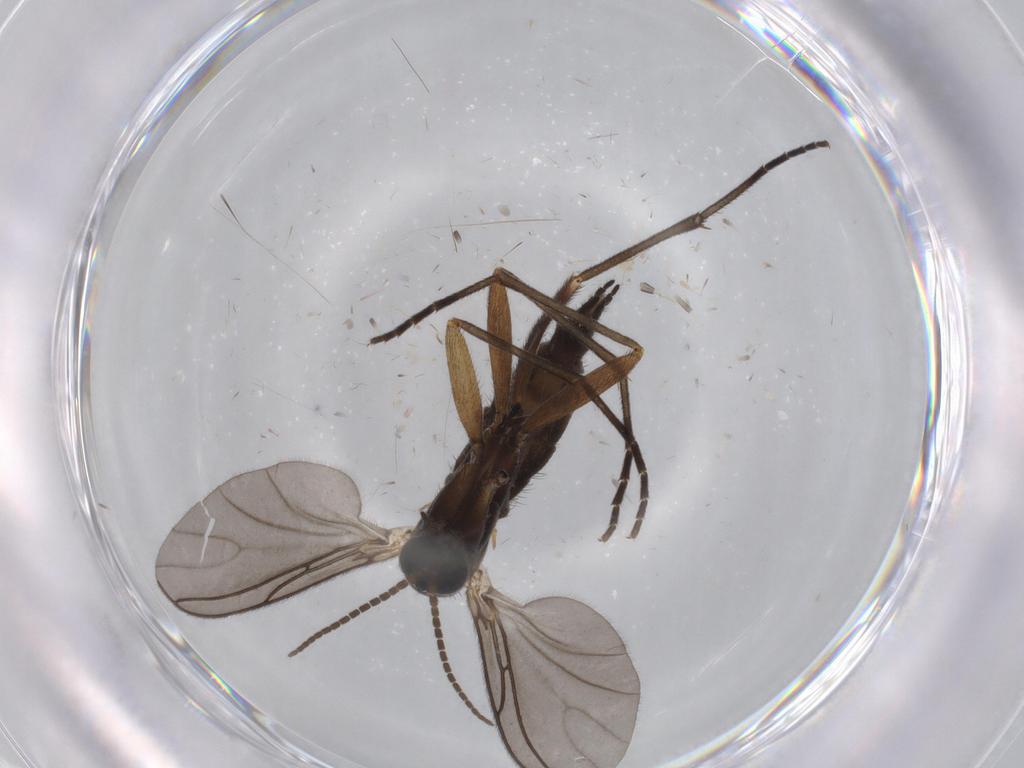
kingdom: Animalia
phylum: Arthropoda
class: Insecta
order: Diptera
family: Sciaridae
